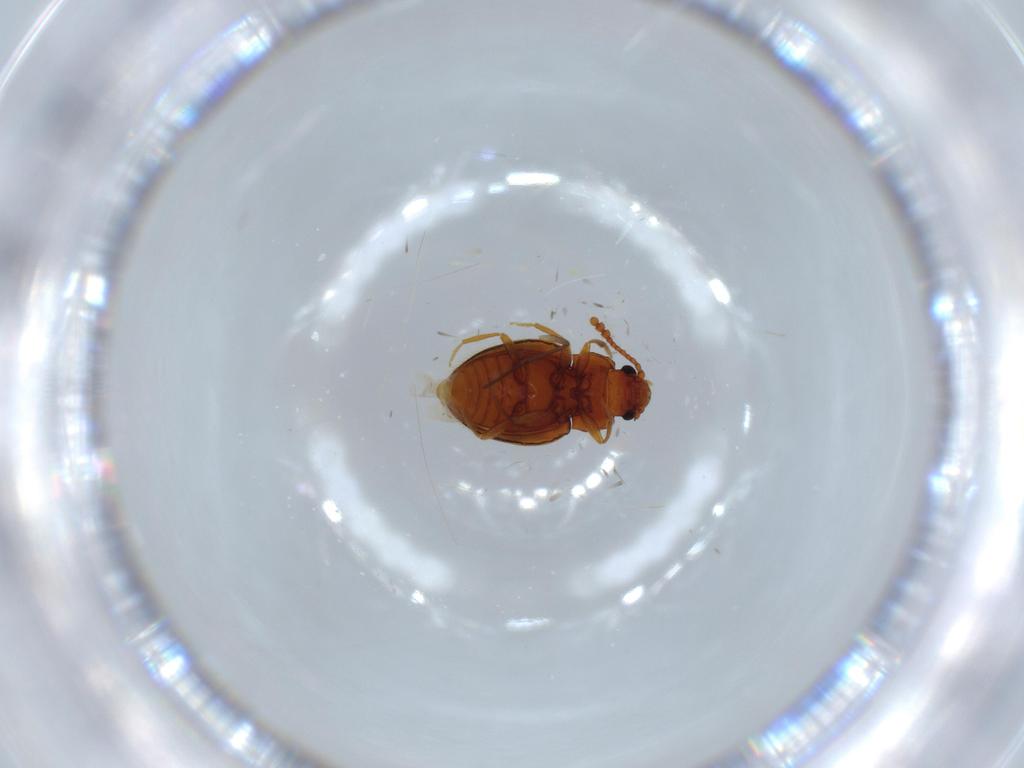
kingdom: Animalia
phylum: Arthropoda
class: Insecta
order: Coleoptera
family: Erotylidae
